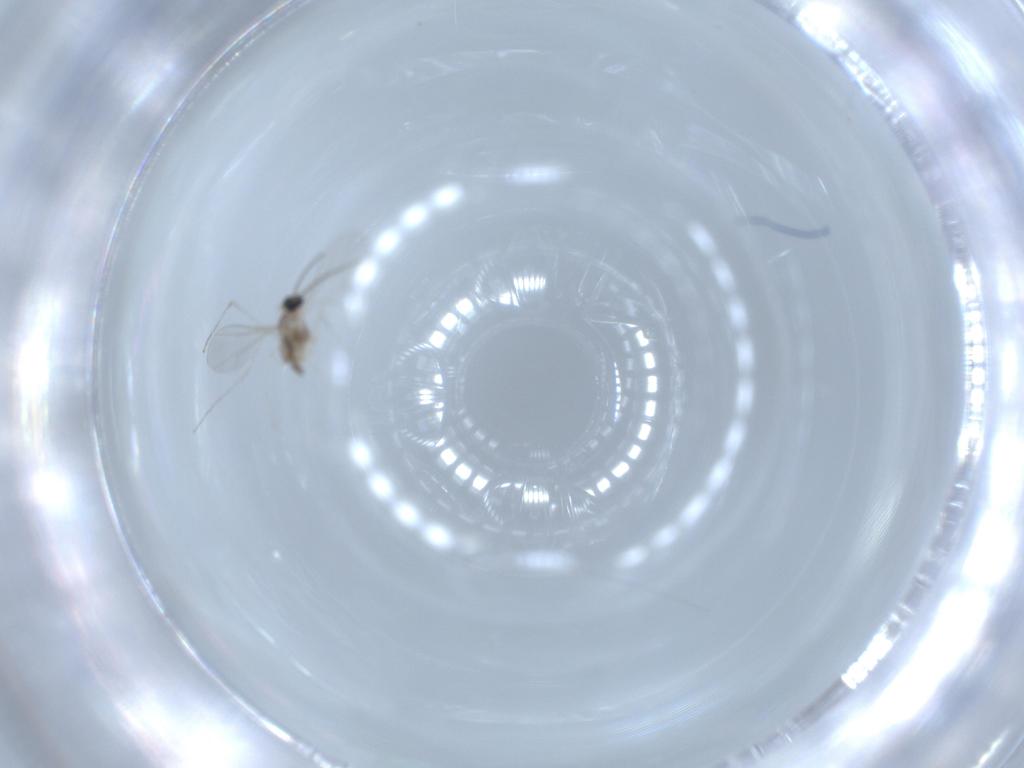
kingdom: Animalia
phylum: Arthropoda
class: Insecta
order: Diptera
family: Cecidomyiidae
